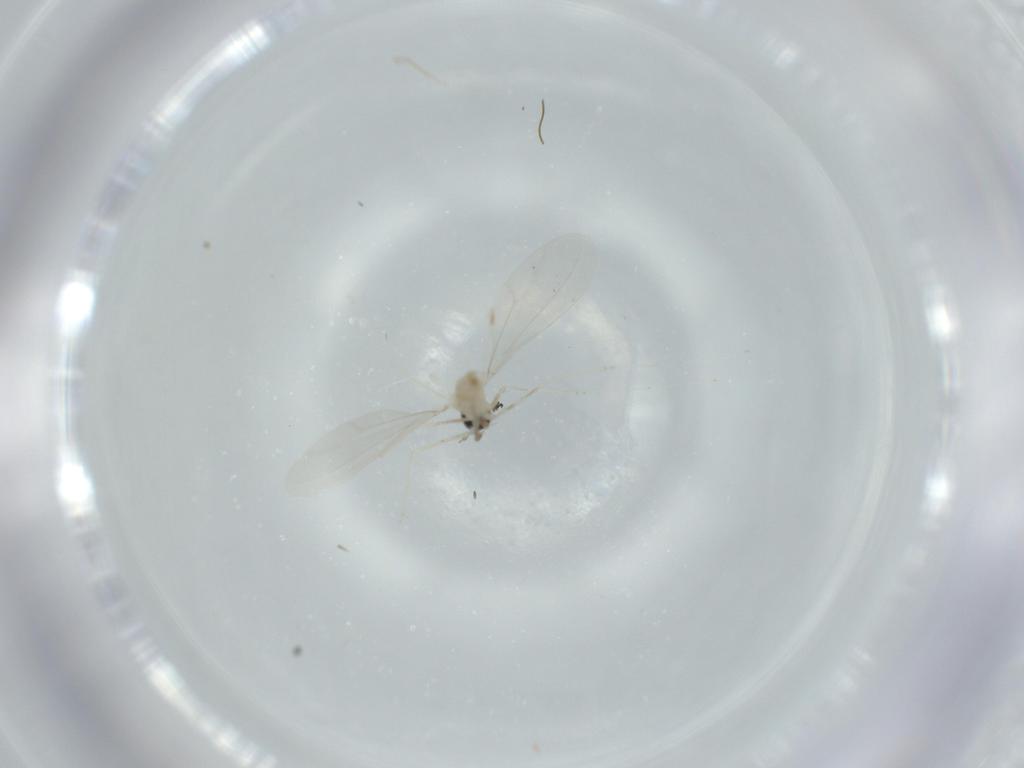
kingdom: Animalia
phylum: Arthropoda
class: Insecta
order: Diptera
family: Cecidomyiidae
